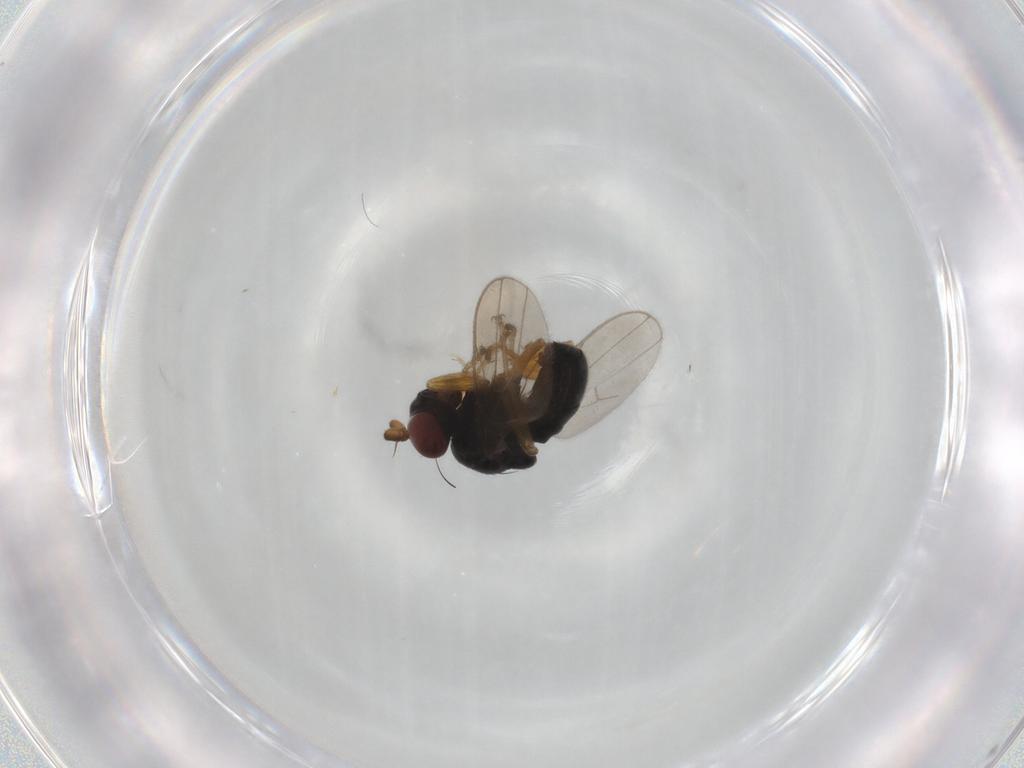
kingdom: Animalia
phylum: Arthropoda
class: Insecta
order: Diptera
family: Ephydridae
